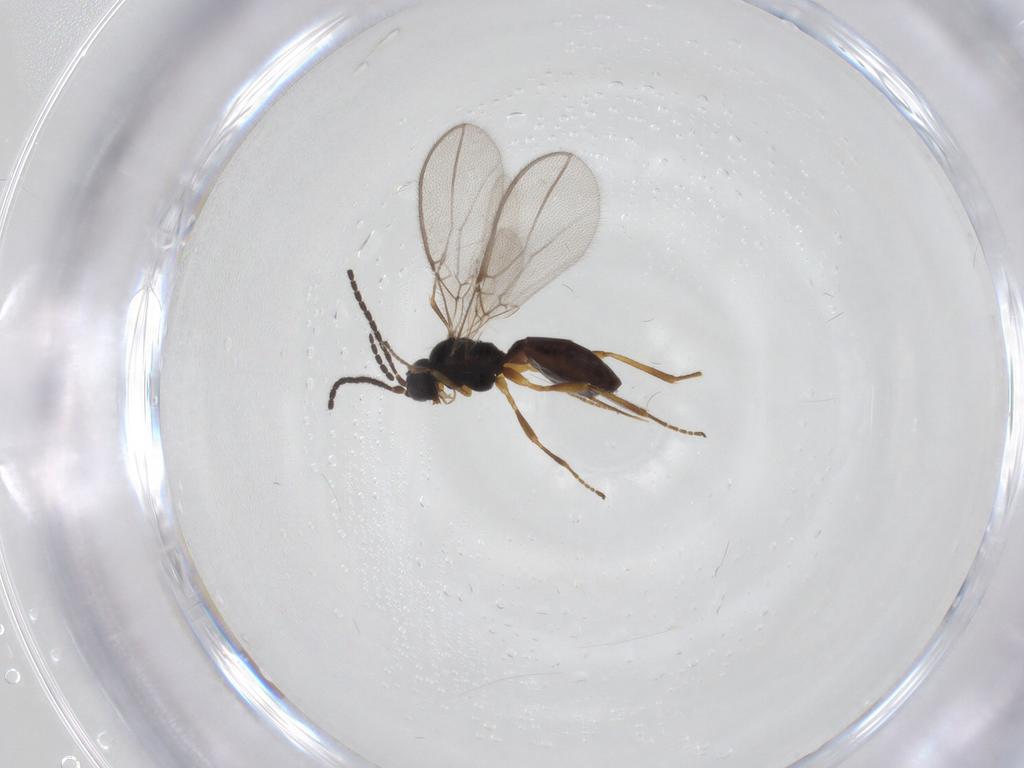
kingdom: Animalia
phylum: Arthropoda
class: Insecta
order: Hymenoptera
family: Braconidae
